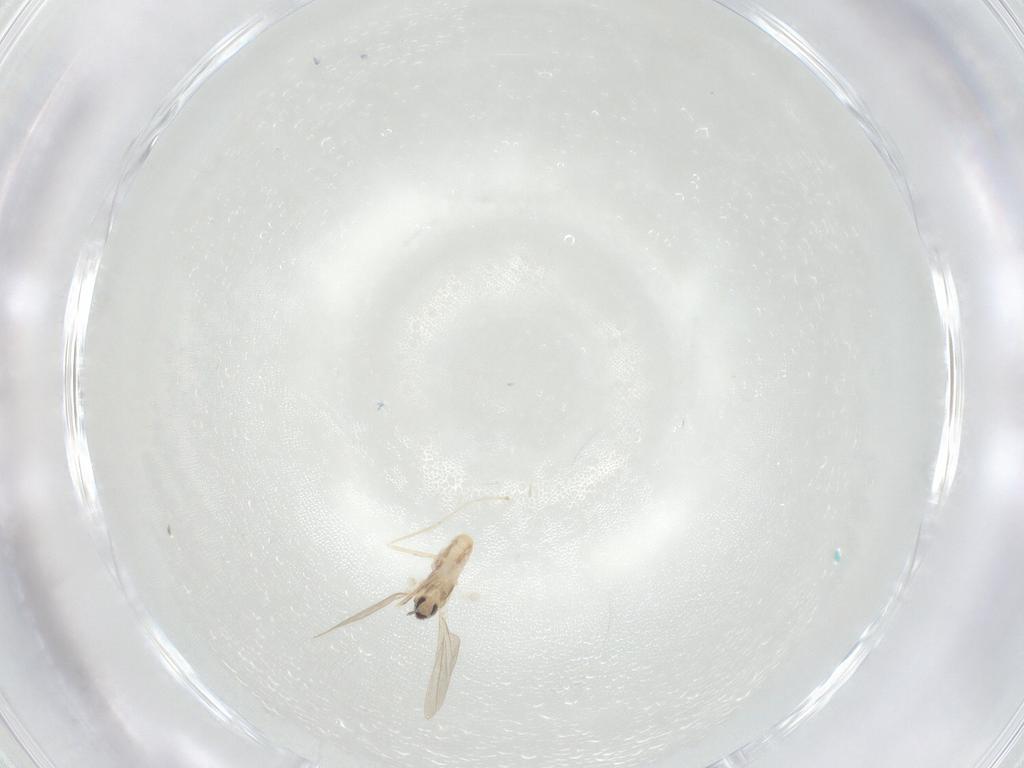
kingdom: Animalia
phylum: Arthropoda
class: Insecta
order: Diptera
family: Cecidomyiidae
